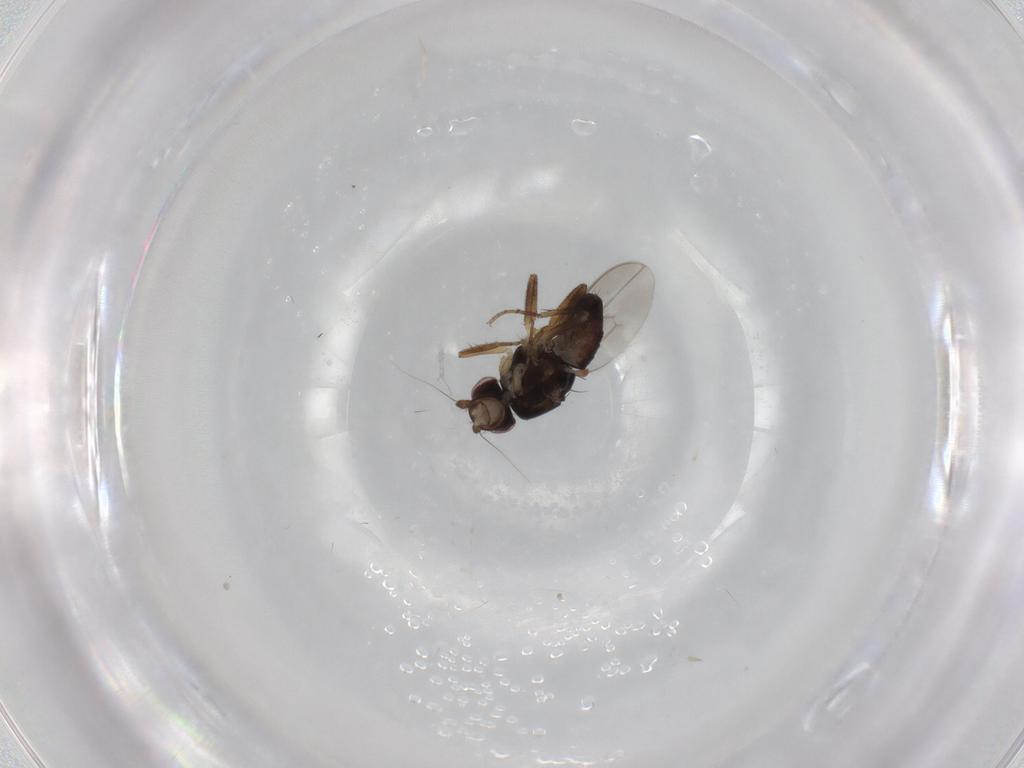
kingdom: Animalia
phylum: Arthropoda
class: Insecta
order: Diptera
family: Sphaeroceridae
